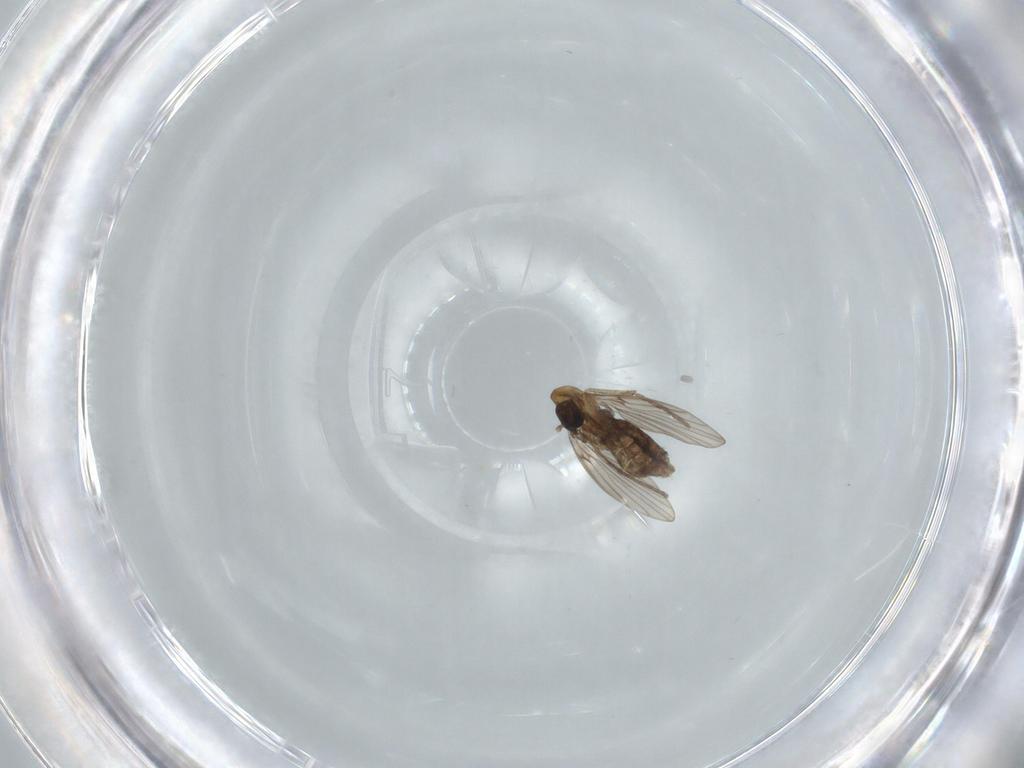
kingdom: Animalia
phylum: Arthropoda
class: Insecta
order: Diptera
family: Psychodidae
